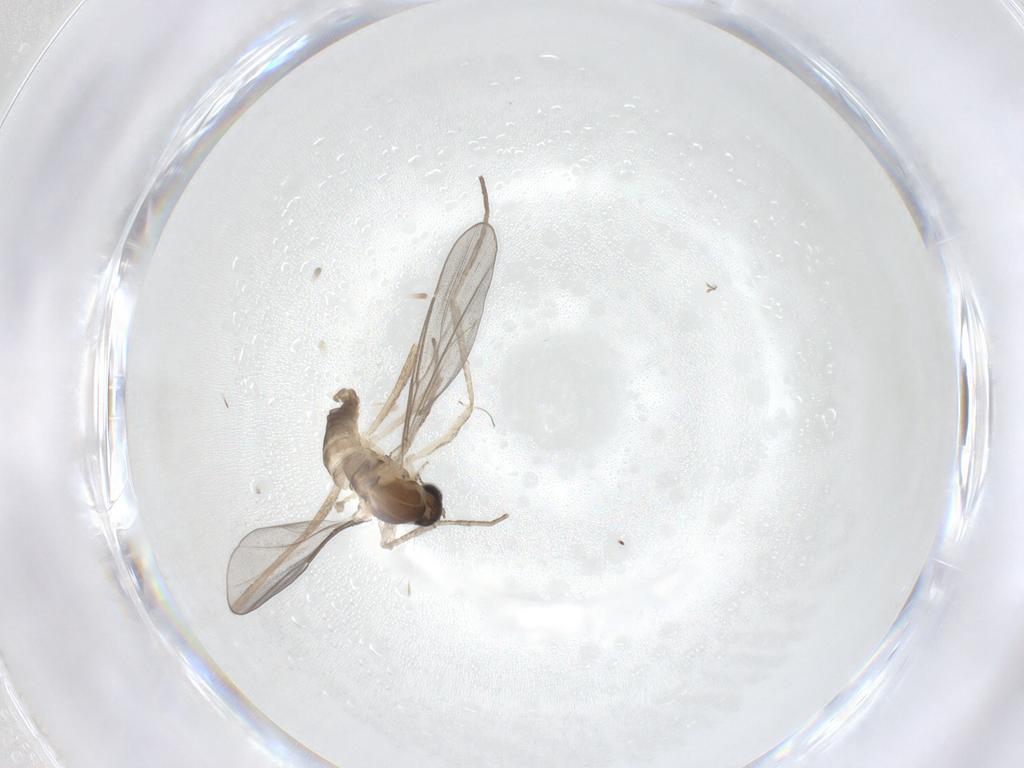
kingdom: Animalia
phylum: Arthropoda
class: Insecta
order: Diptera
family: Cecidomyiidae
